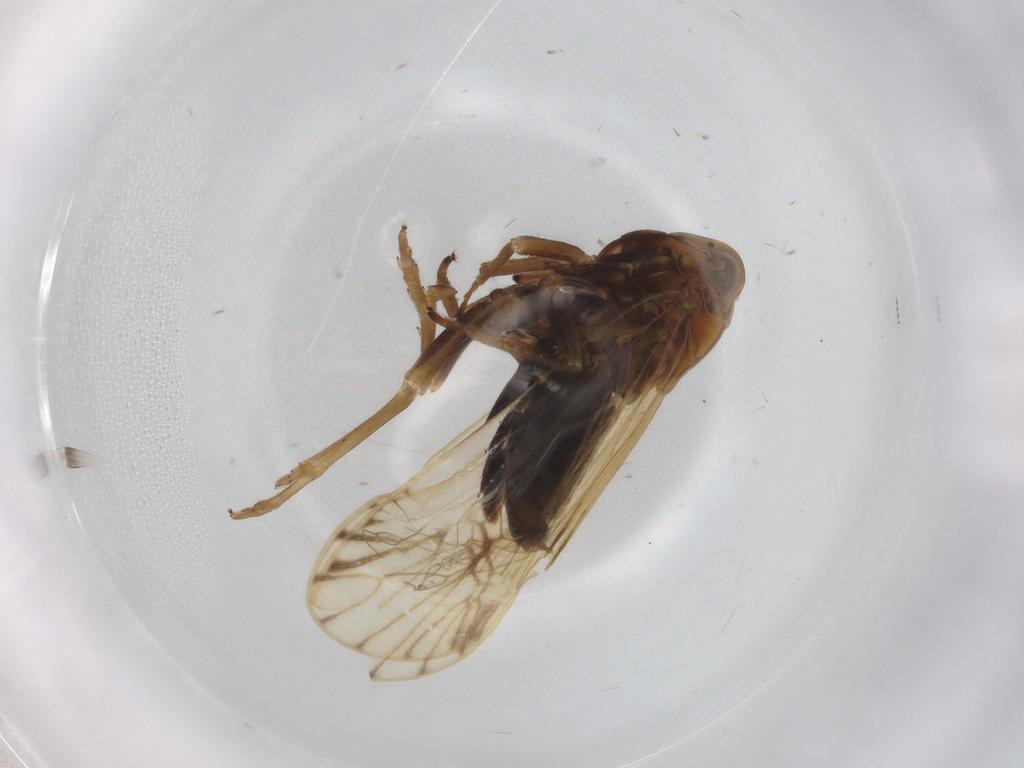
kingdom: Animalia
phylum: Arthropoda
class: Insecta
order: Hemiptera
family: Delphacidae
